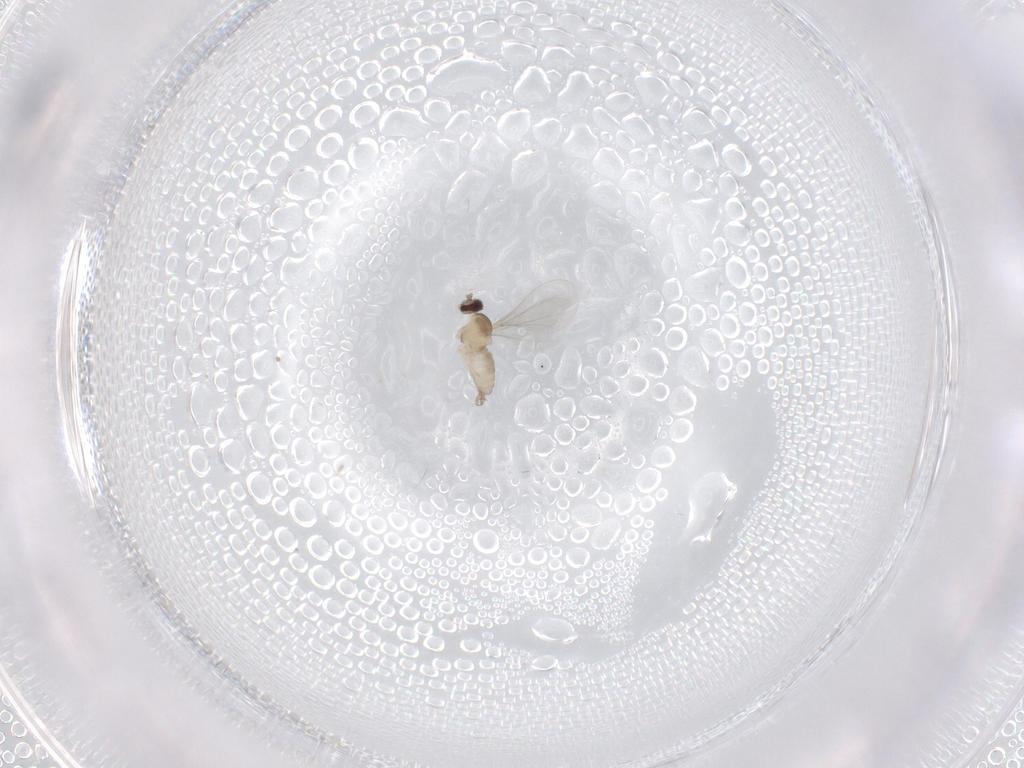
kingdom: Animalia
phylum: Arthropoda
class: Insecta
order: Diptera
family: Cecidomyiidae
